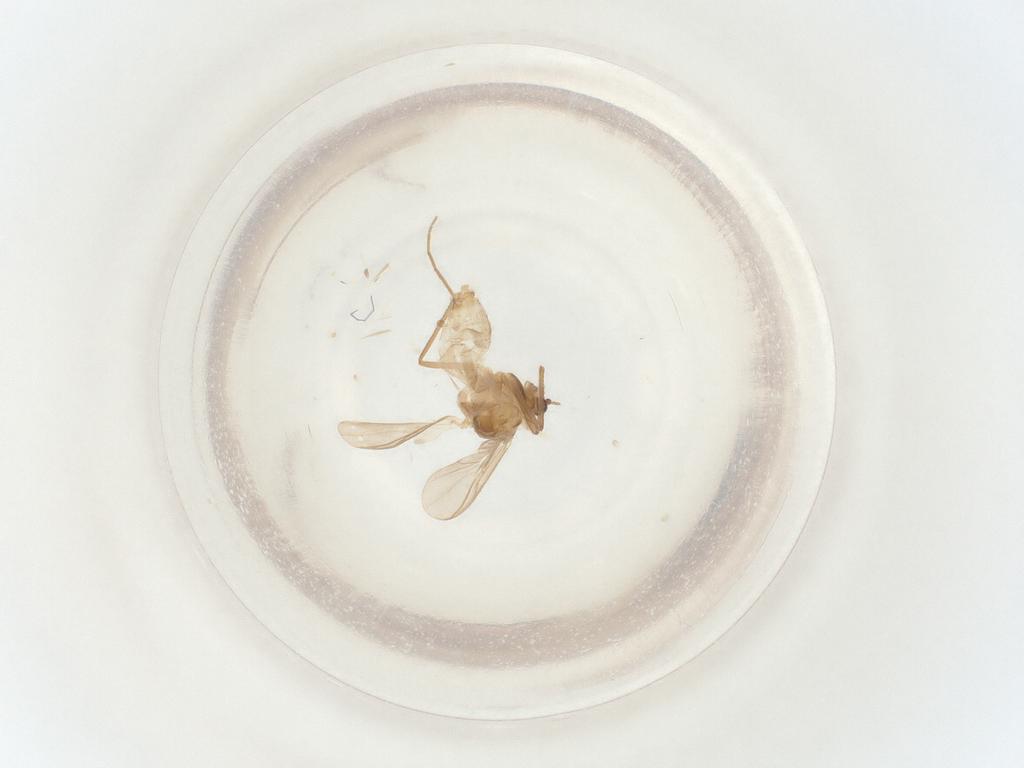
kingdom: Animalia
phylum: Arthropoda
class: Insecta
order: Diptera
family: Chironomidae
